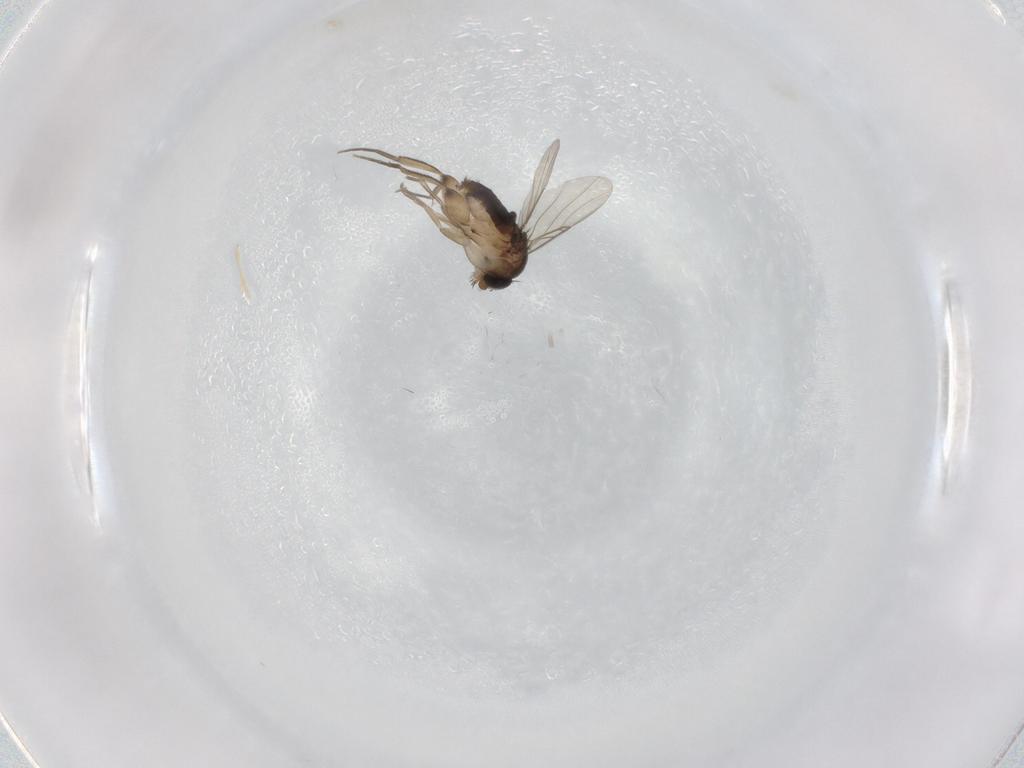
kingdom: Animalia
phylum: Arthropoda
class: Insecta
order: Diptera
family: Phoridae
